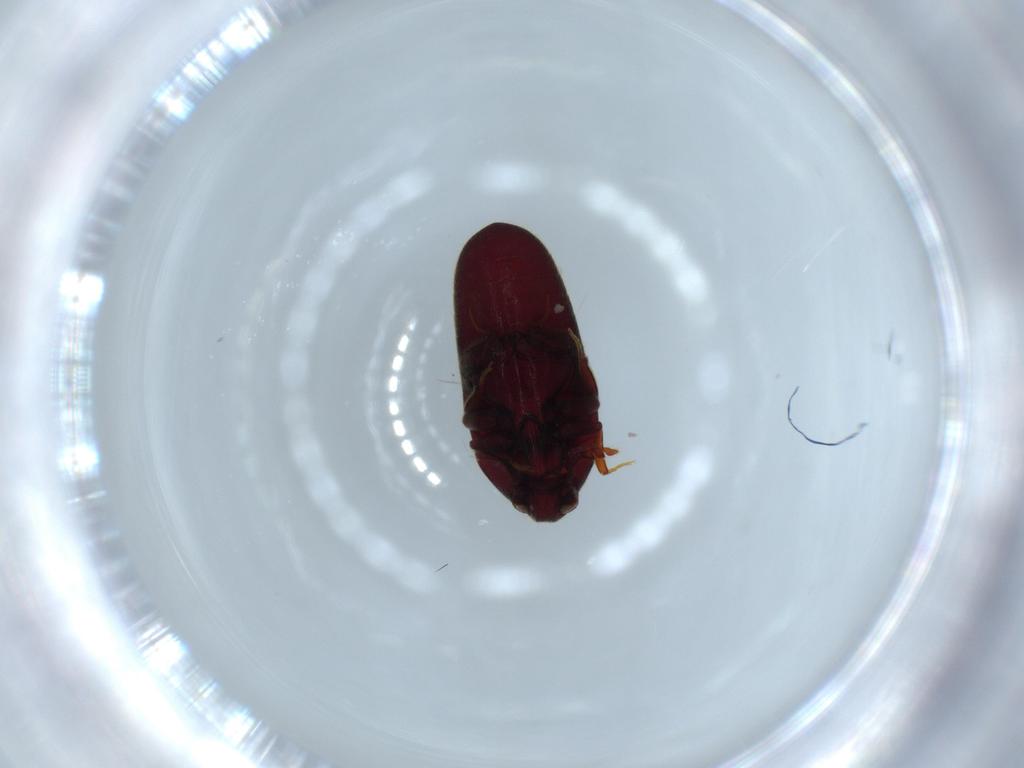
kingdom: Animalia
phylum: Arthropoda
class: Insecta
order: Coleoptera
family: Throscidae
